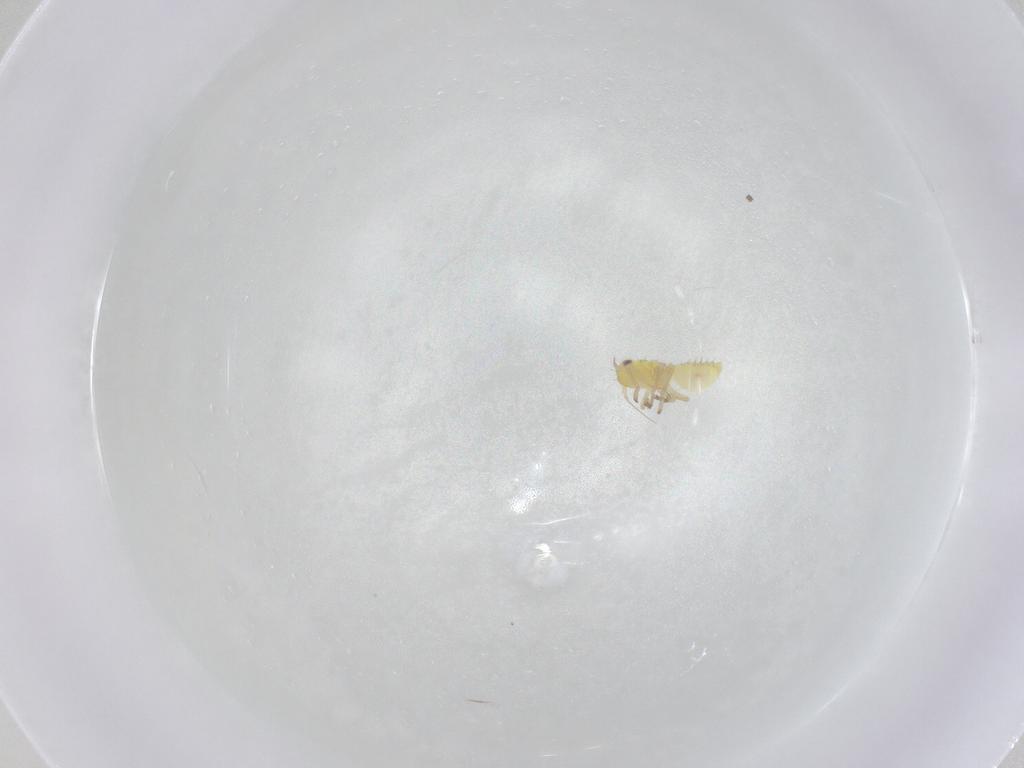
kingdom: Animalia
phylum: Arthropoda
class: Insecta
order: Hemiptera
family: Cicadellidae
